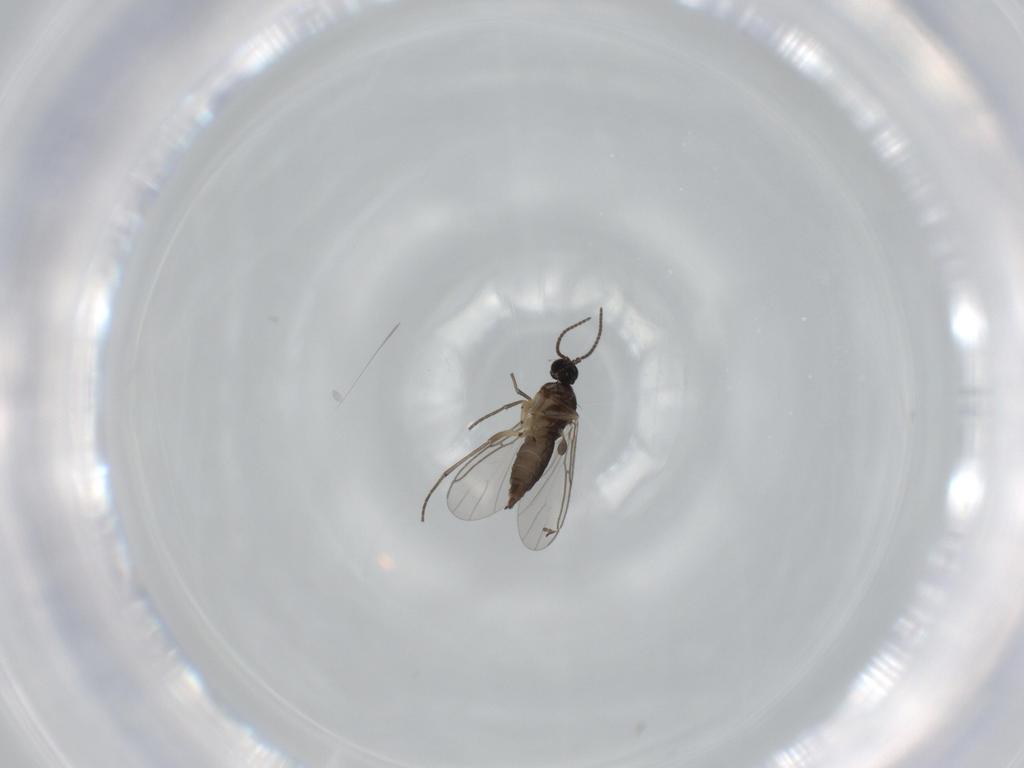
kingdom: Animalia
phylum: Arthropoda
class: Insecta
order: Diptera
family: Sciaridae
